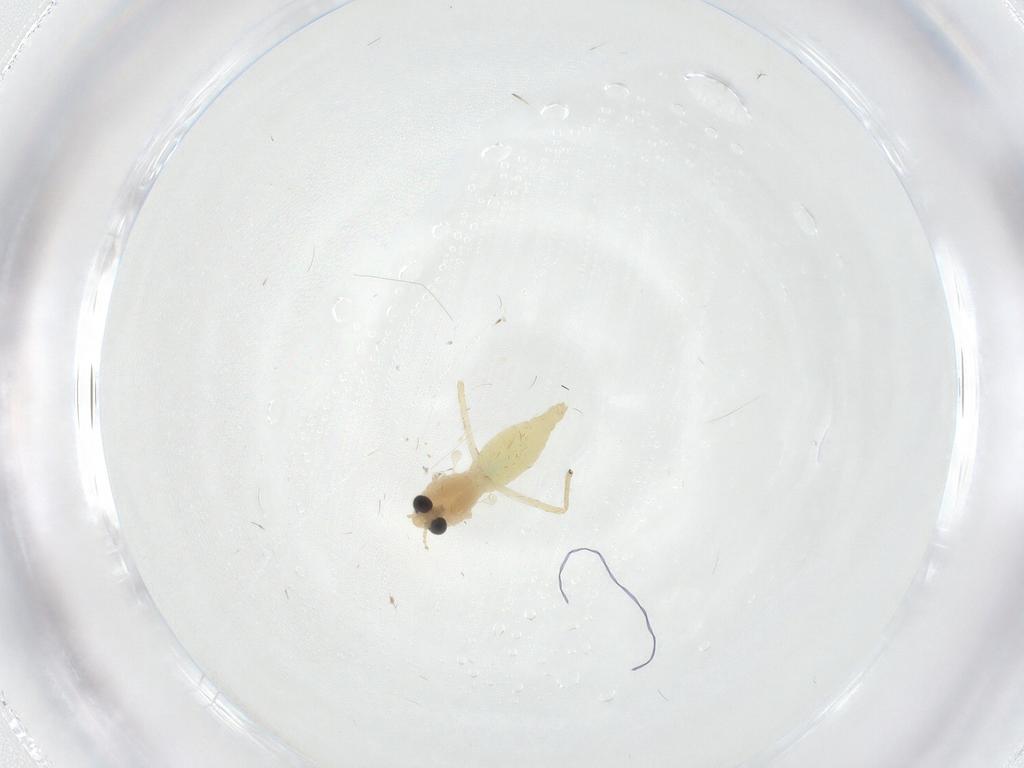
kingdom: Animalia
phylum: Arthropoda
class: Insecta
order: Diptera
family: Chironomidae
